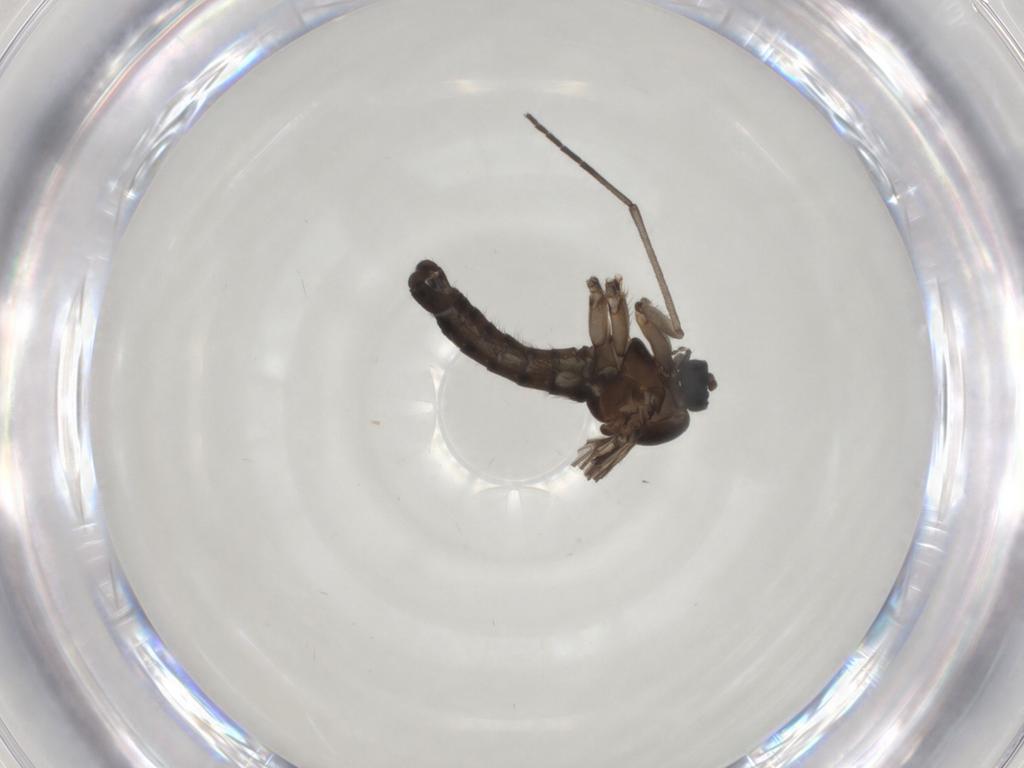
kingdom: Animalia
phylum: Arthropoda
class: Insecta
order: Diptera
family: Sciaridae
